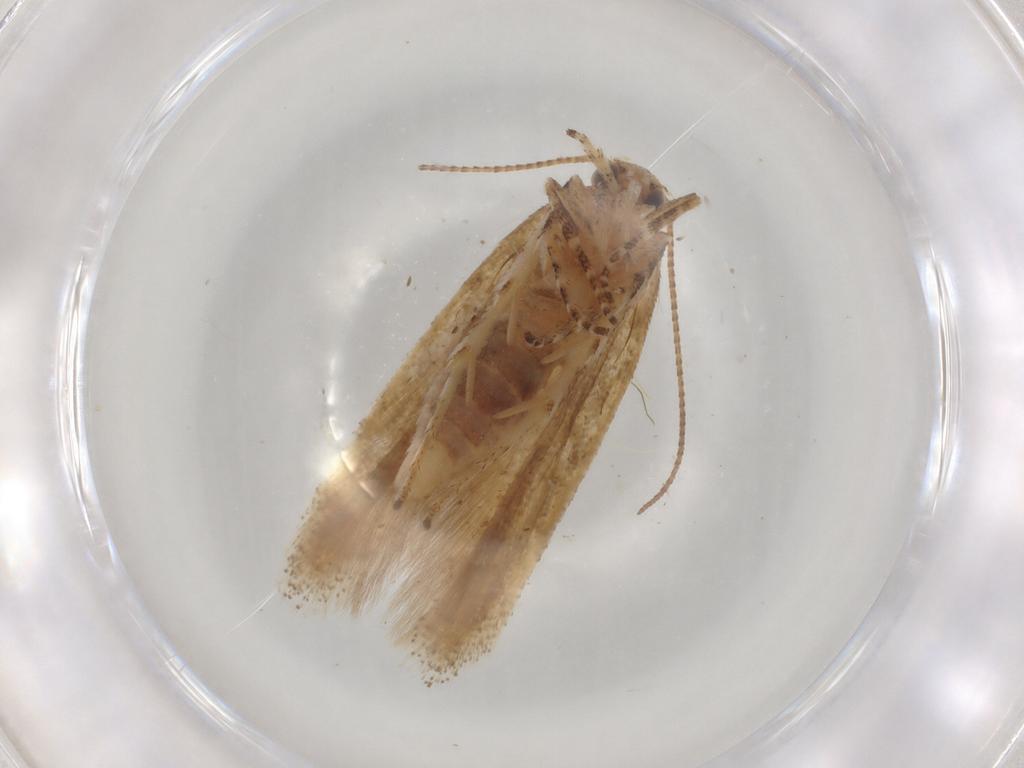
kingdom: Animalia
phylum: Arthropoda
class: Insecta
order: Lepidoptera
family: Gelechiidae
